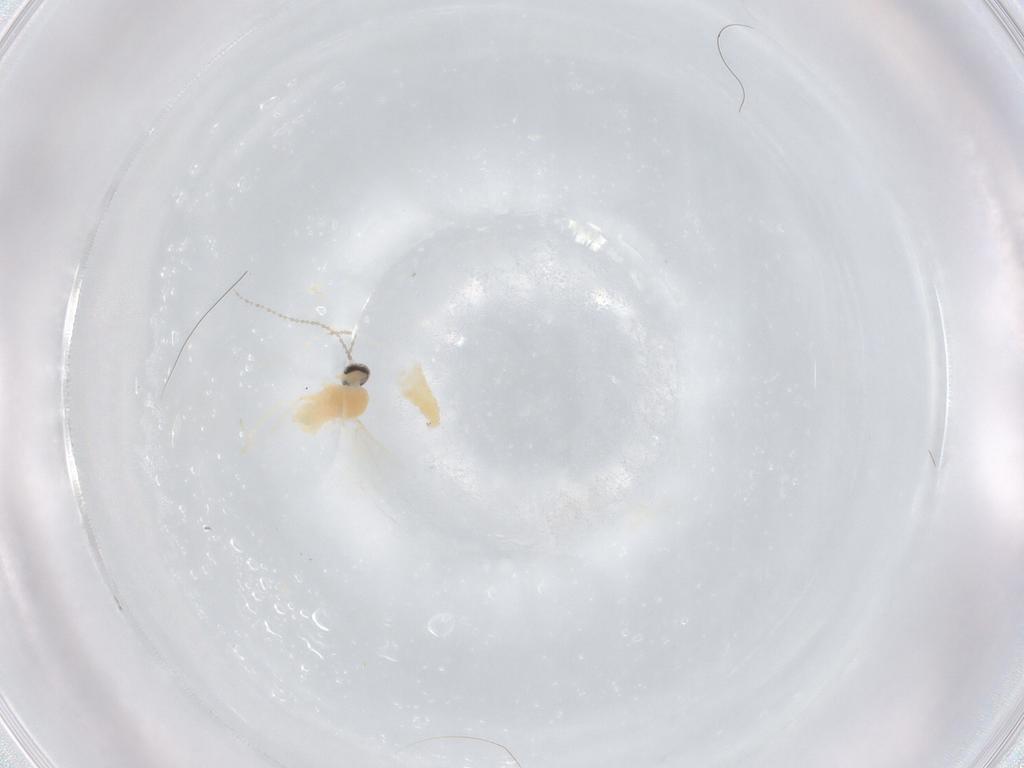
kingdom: Animalia
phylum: Arthropoda
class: Insecta
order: Diptera
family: Cecidomyiidae
